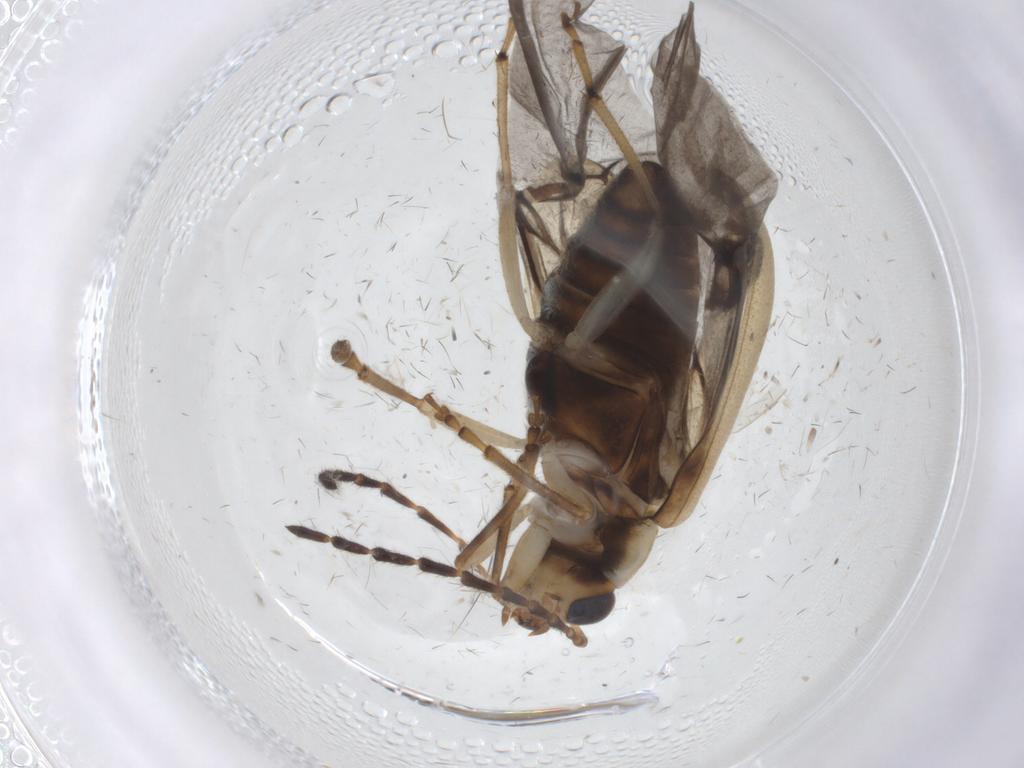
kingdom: Animalia
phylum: Arthropoda
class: Insecta
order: Coleoptera
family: Chrysomelidae
